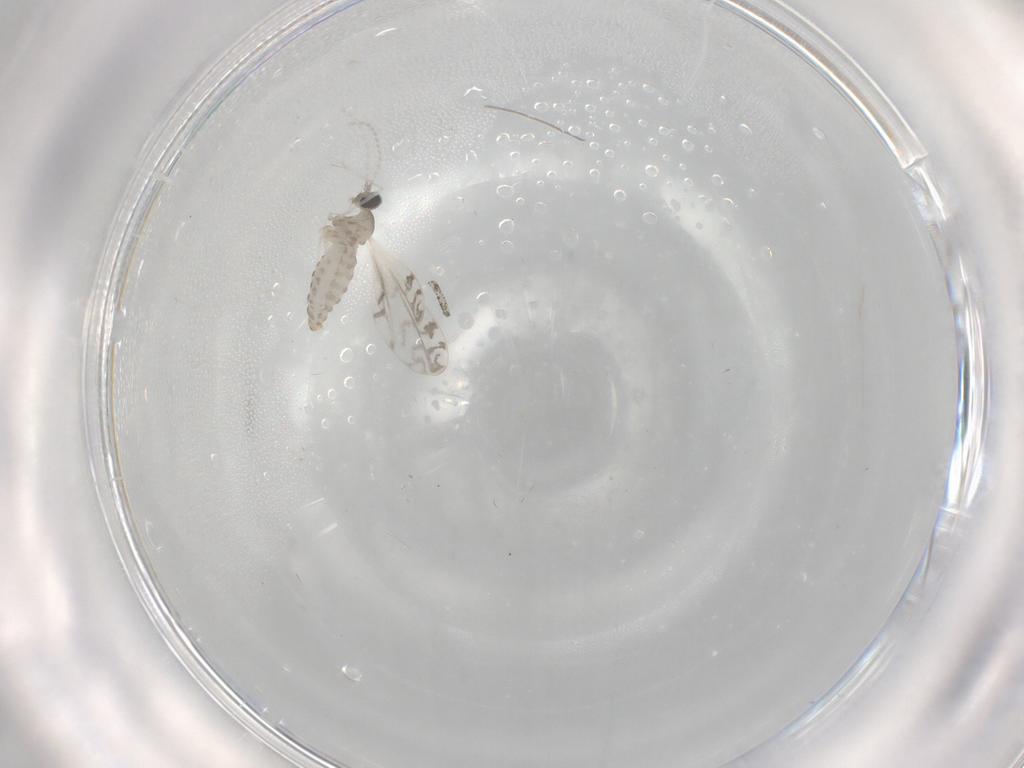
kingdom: Animalia
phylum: Arthropoda
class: Insecta
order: Diptera
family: Cecidomyiidae
